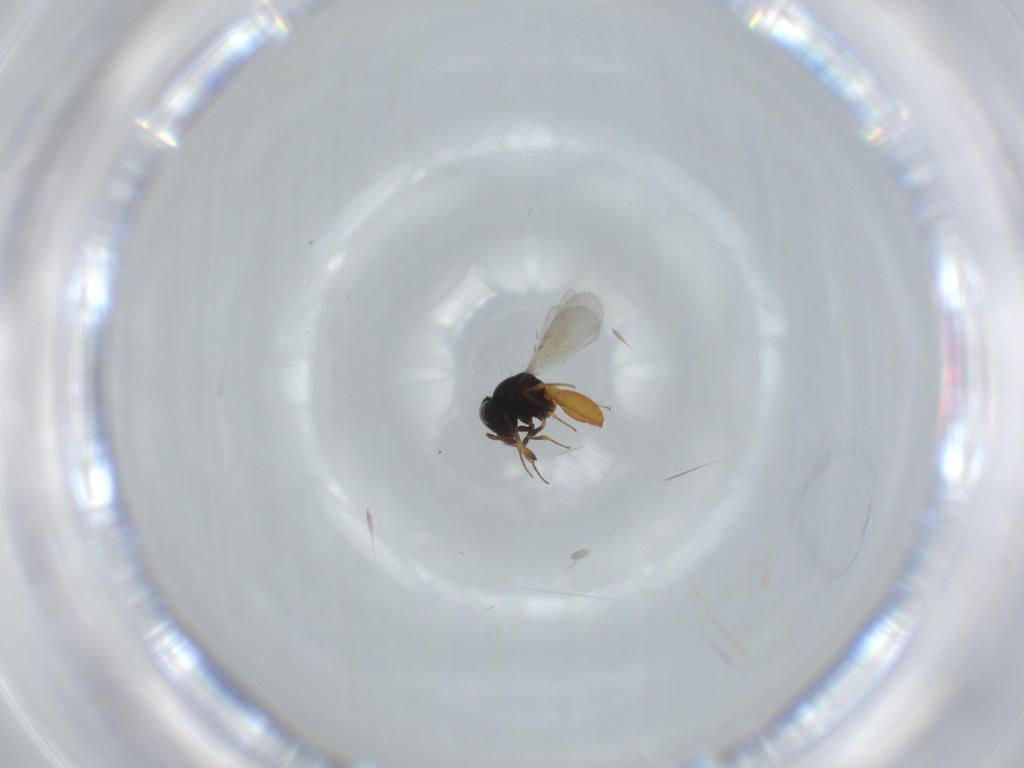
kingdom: Animalia
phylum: Arthropoda
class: Insecta
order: Hymenoptera
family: Scelionidae
